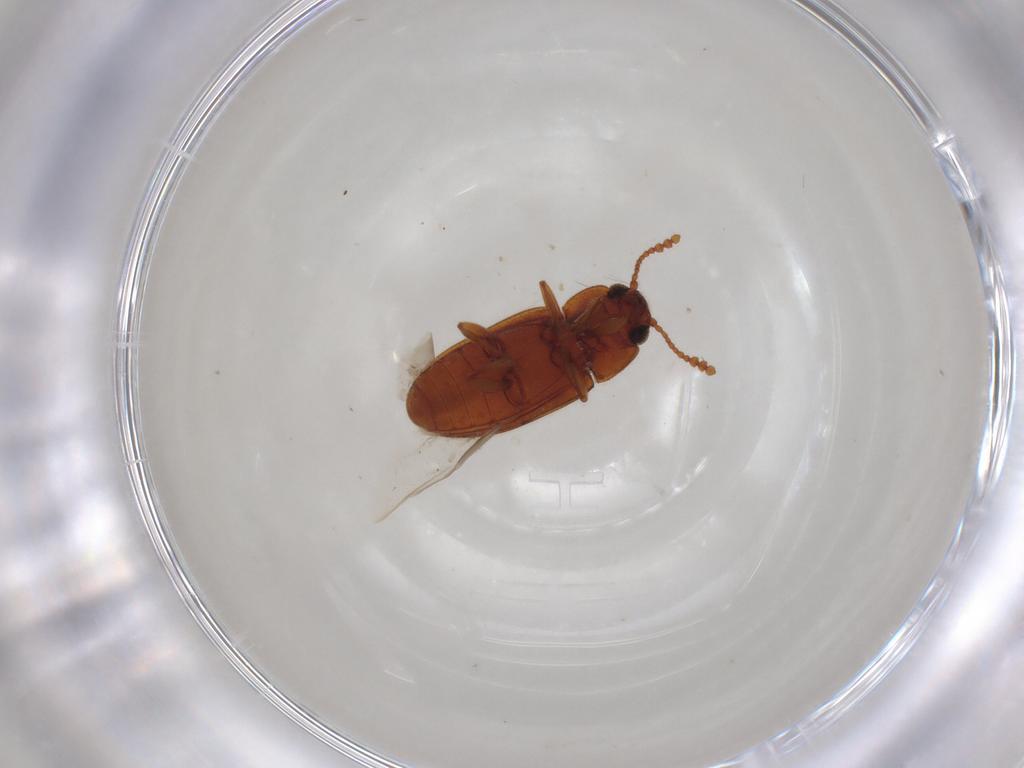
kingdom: Animalia
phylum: Arthropoda
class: Insecta
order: Coleoptera
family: Erotylidae
